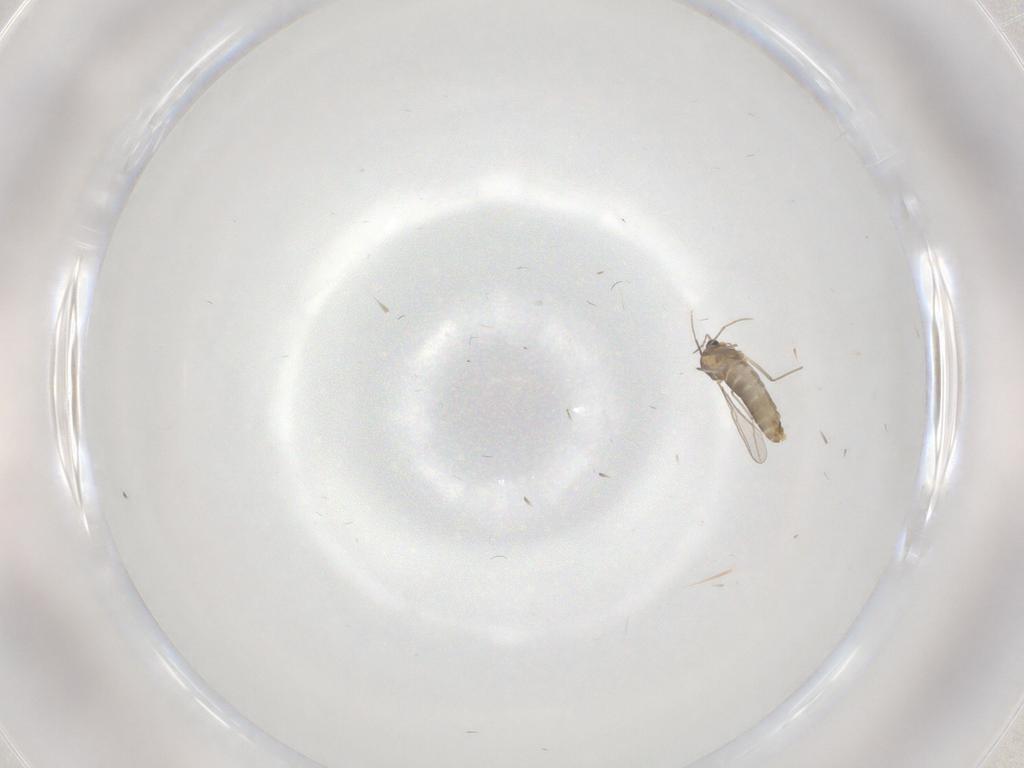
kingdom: Animalia
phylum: Arthropoda
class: Insecta
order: Diptera
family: Chironomidae
